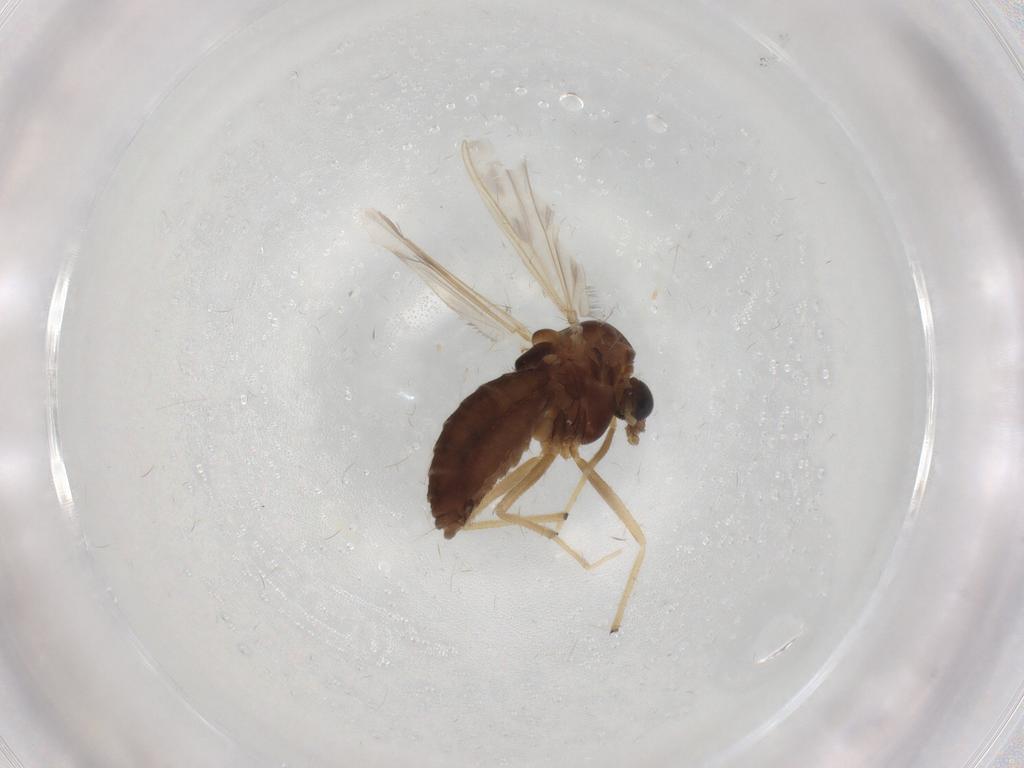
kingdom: Animalia
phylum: Arthropoda
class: Insecta
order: Diptera
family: Chironomidae
